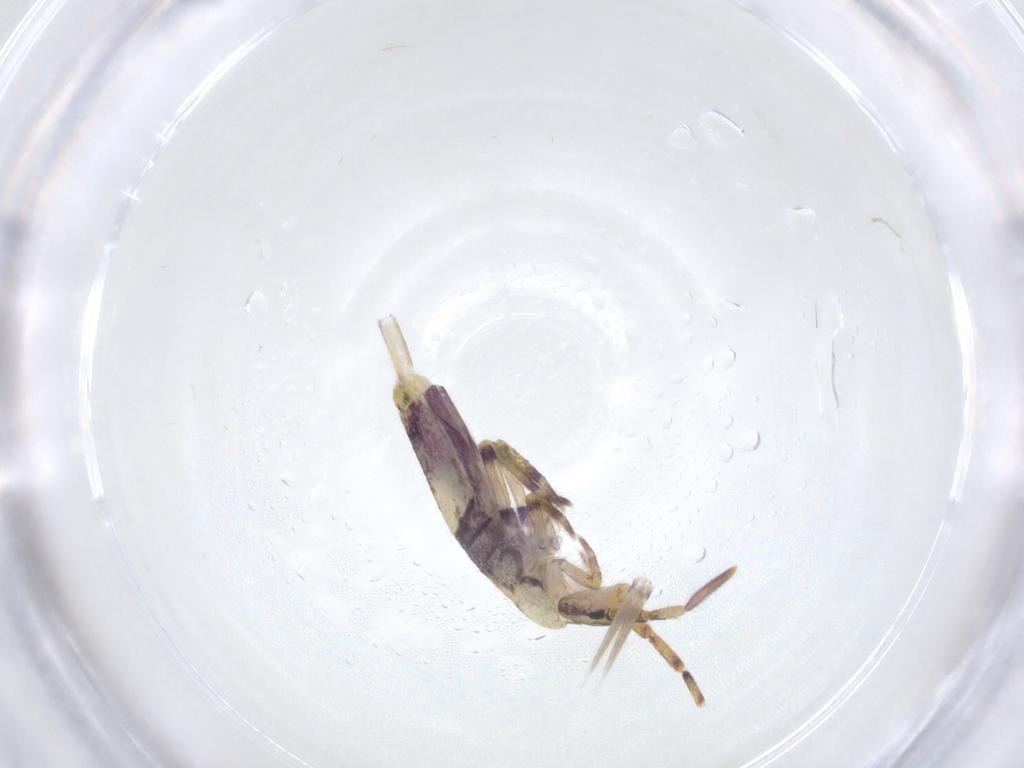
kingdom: Animalia
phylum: Arthropoda
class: Collembola
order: Entomobryomorpha
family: Entomobryidae
